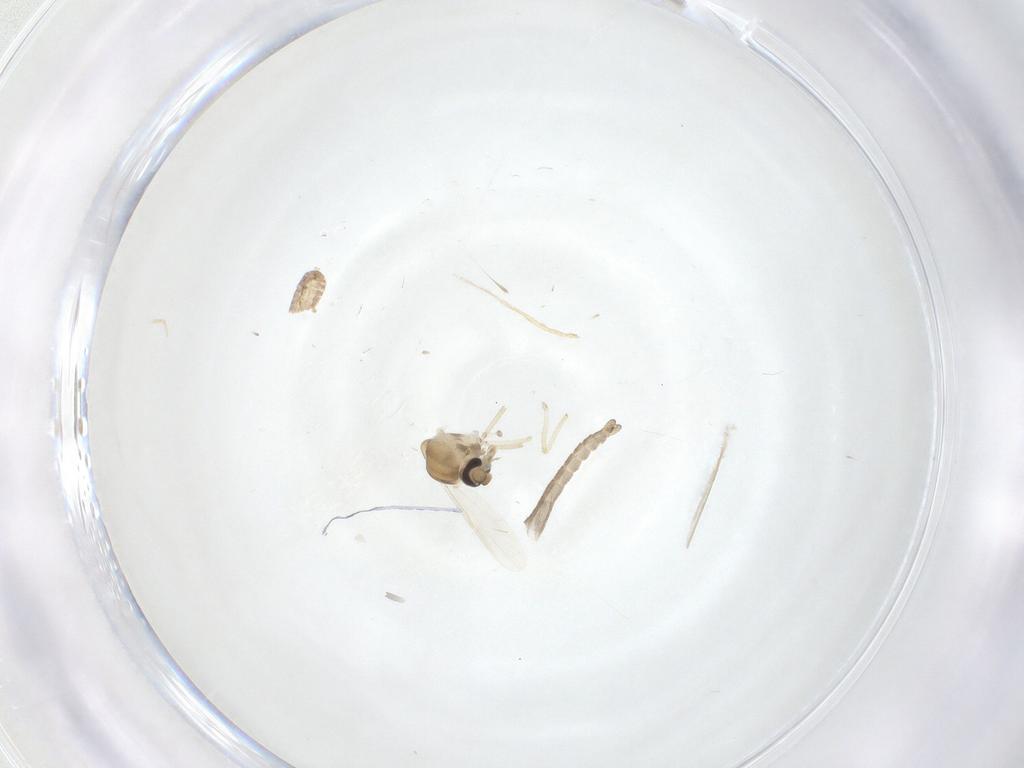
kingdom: Animalia
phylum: Arthropoda
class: Insecta
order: Diptera
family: Ceratopogonidae
